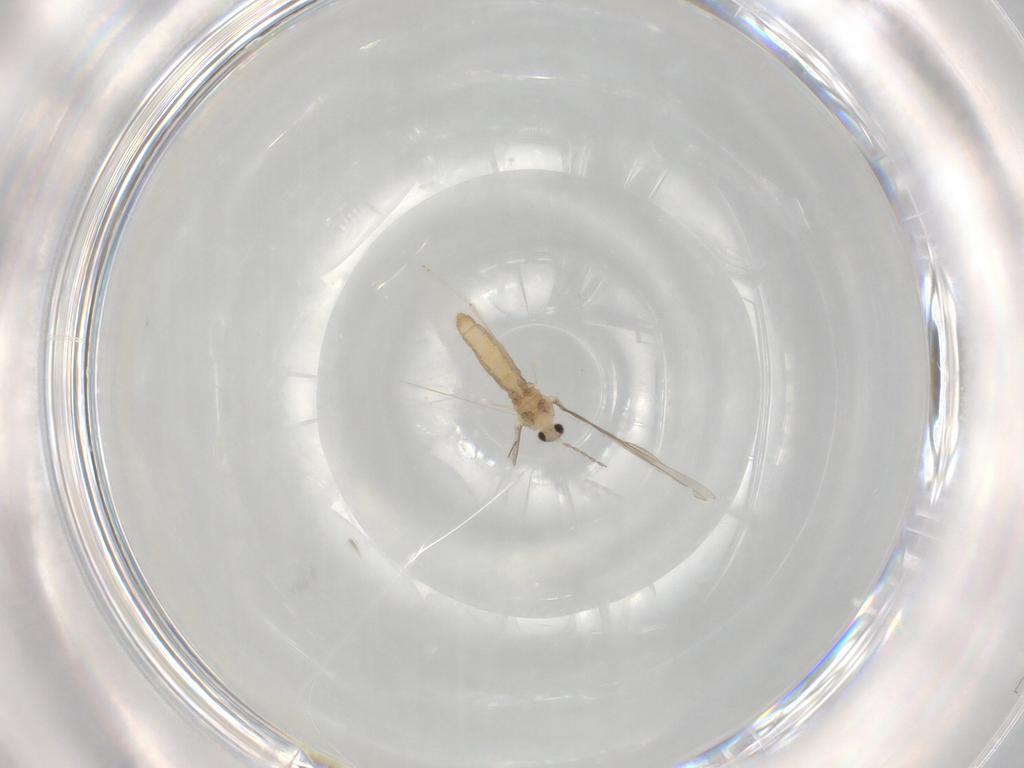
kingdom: Animalia
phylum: Arthropoda
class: Insecta
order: Diptera
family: Cecidomyiidae
